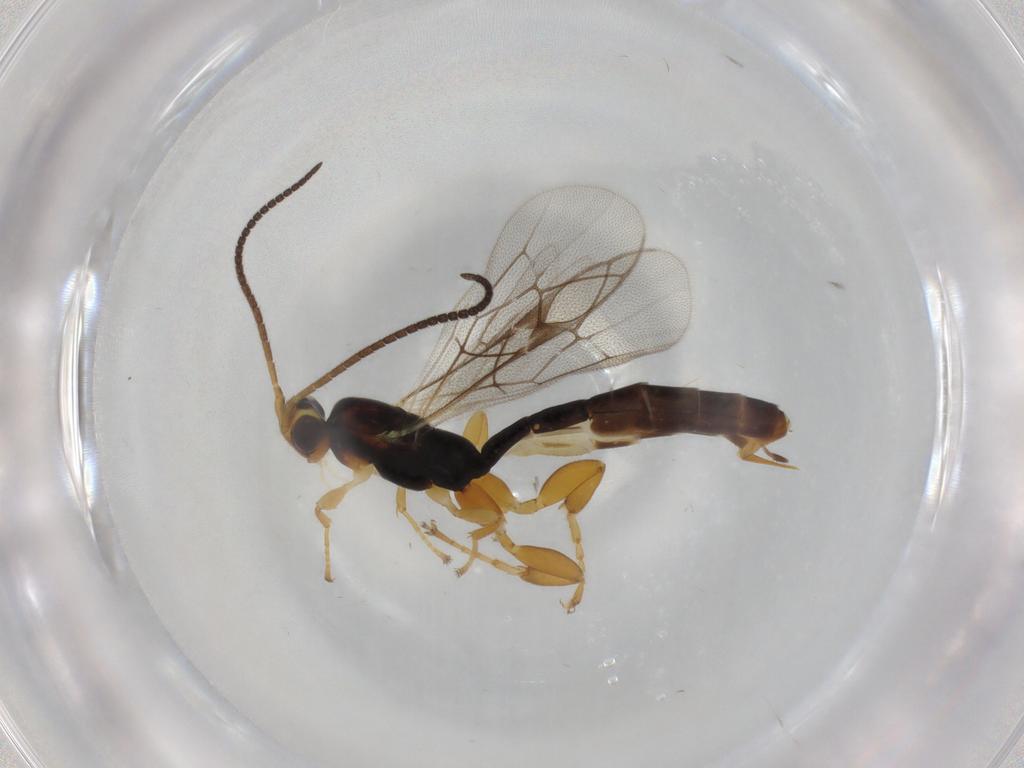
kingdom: Animalia
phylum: Arthropoda
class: Insecta
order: Hymenoptera
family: Ichneumonidae
